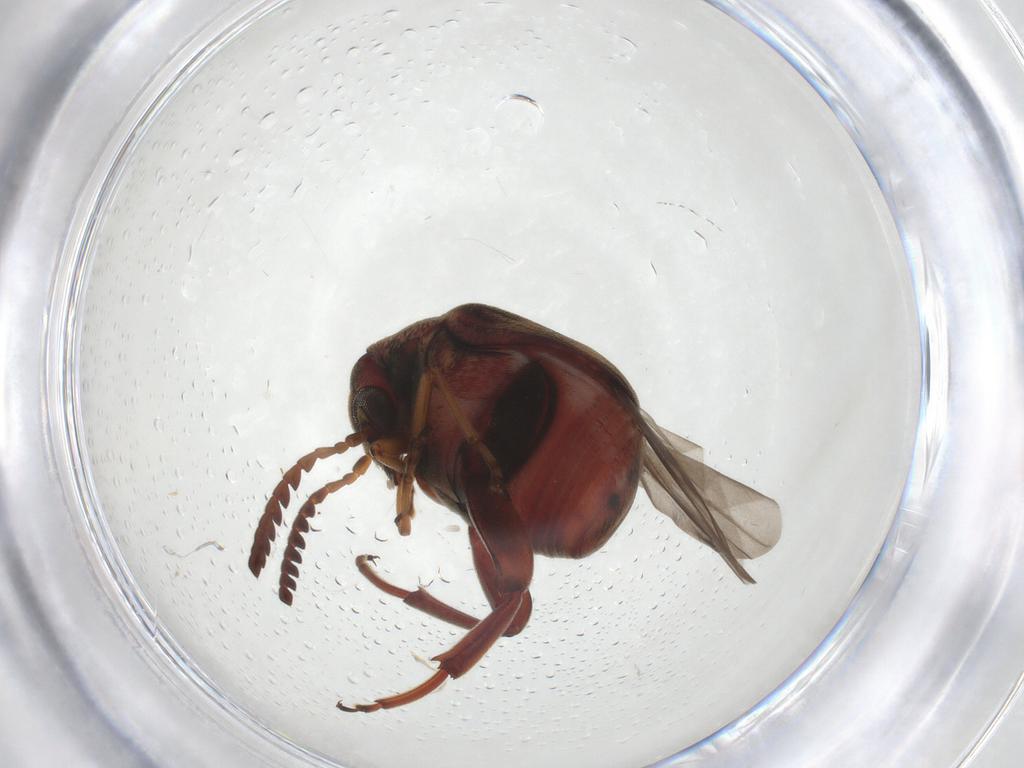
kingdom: Animalia
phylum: Arthropoda
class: Insecta
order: Coleoptera
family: Chrysomelidae
